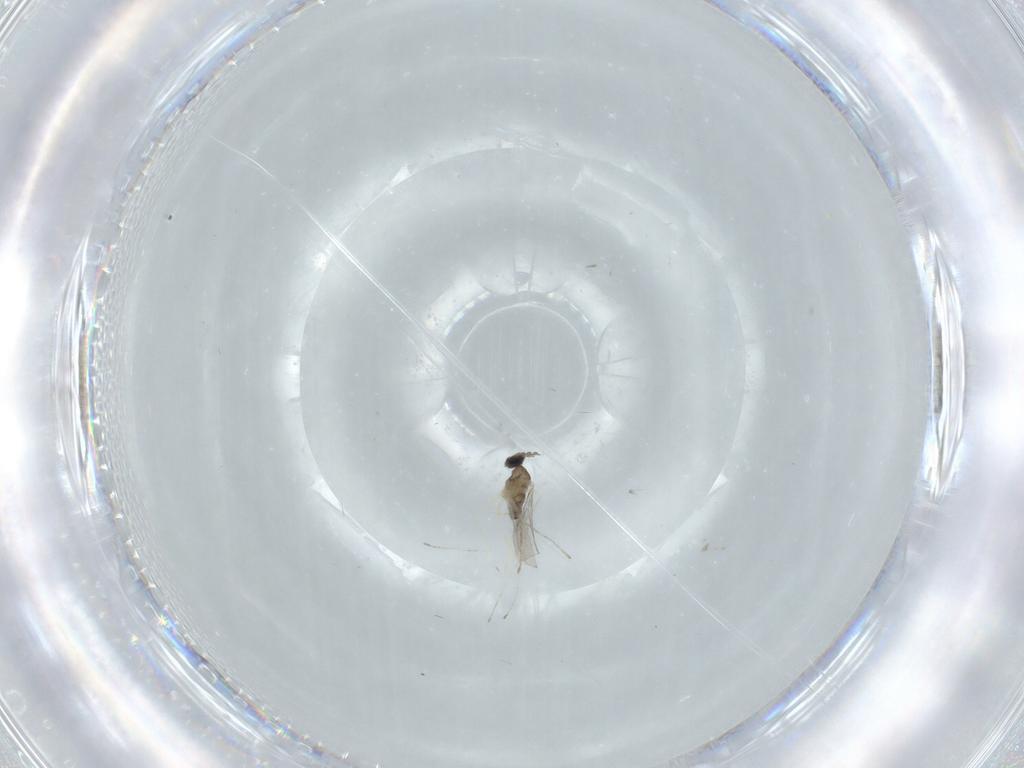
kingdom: Animalia
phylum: Arthropoda
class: Insecta
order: Diptera
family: Cecidomyiidae
